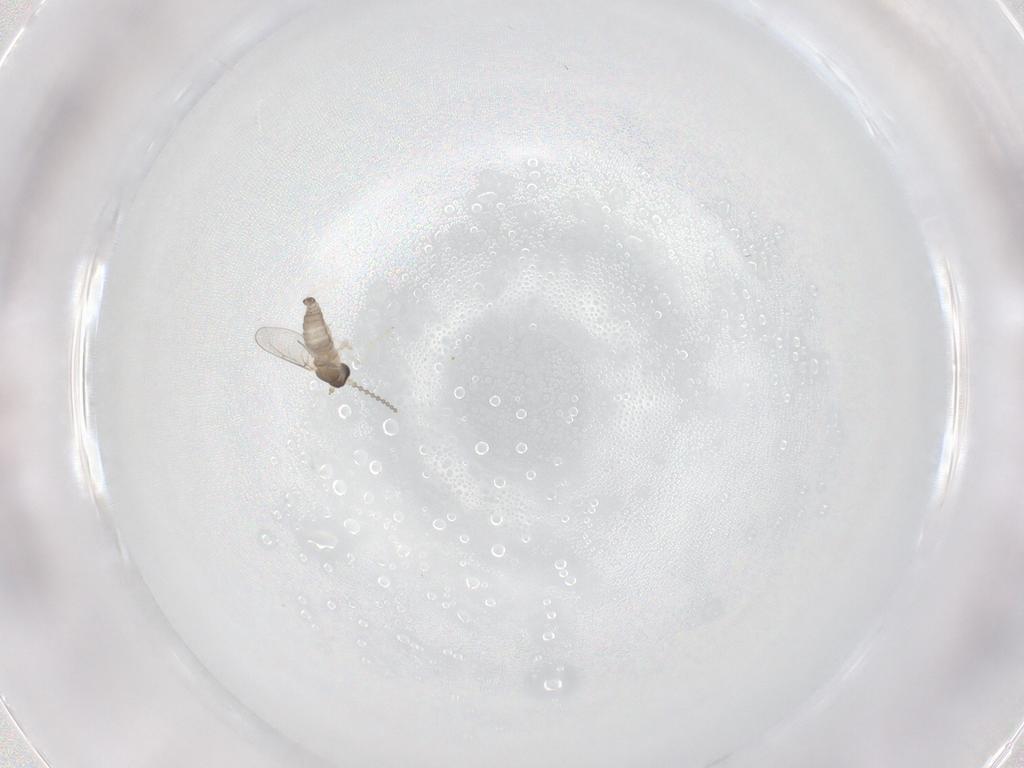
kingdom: Animalia
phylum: Arthropoda
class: Insecta
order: Diptera
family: Cecidomyiidae
